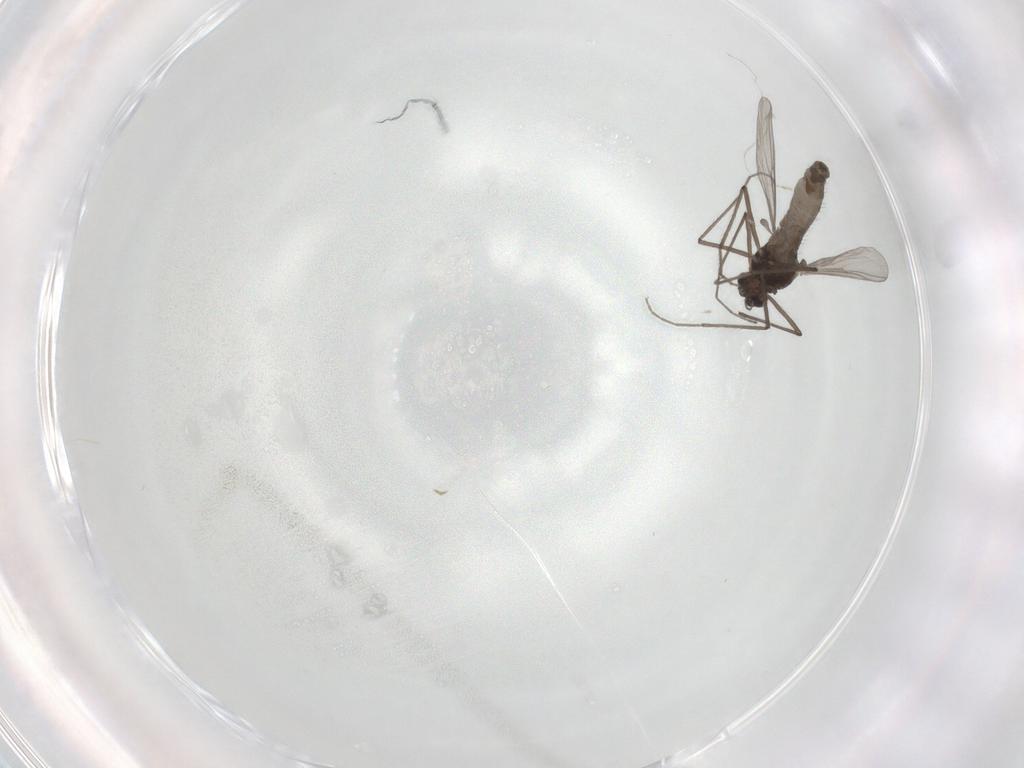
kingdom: Animalia
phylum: Arthropoda
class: Insecta
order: Diptera
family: Chironomidae
